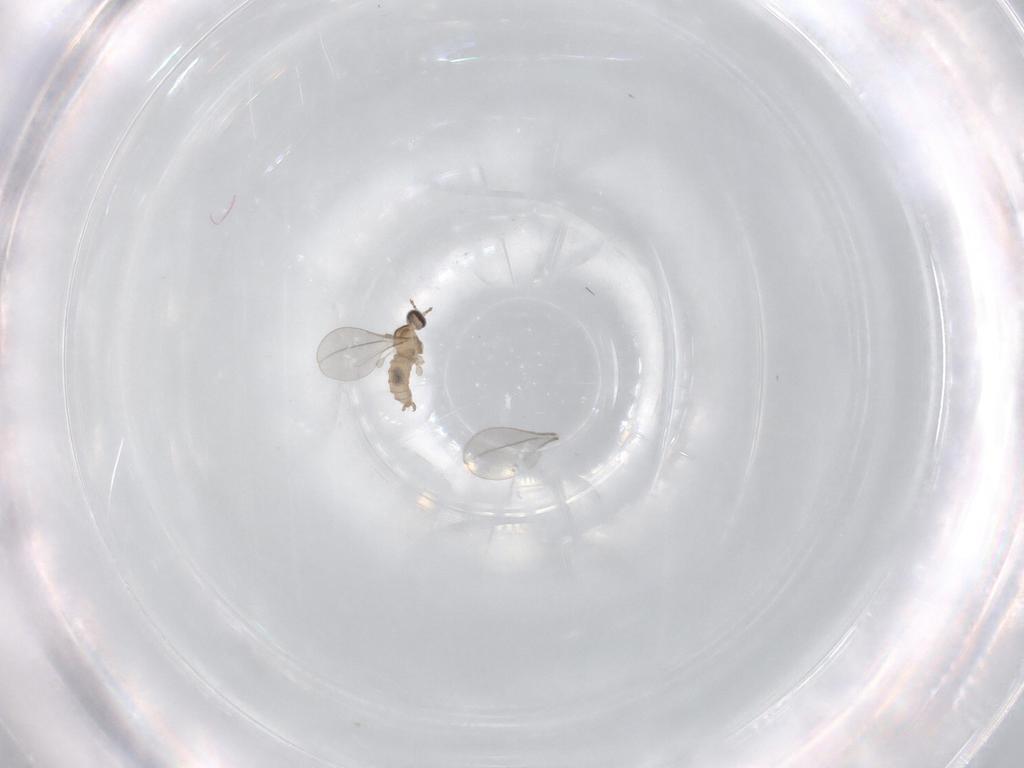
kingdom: Animalia
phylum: Arthropoda
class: Insecta
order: Diptera
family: Cecidomyiidae
